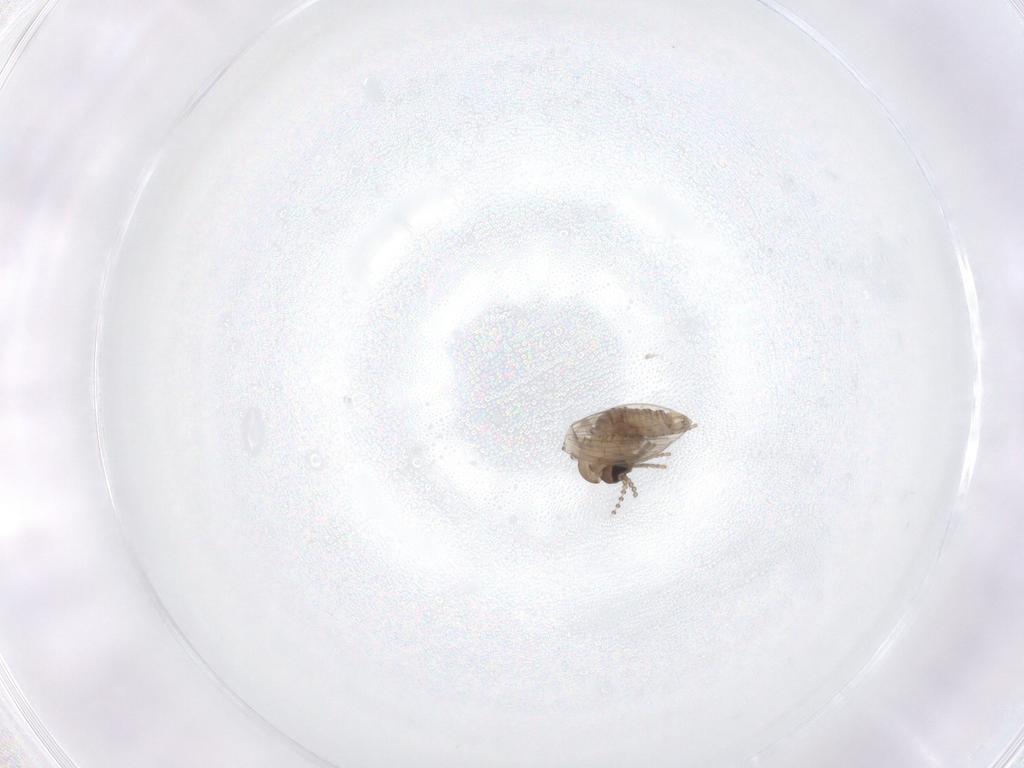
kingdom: Animalia
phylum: Arthropoda
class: Insecta
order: Diptera
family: Psychodidae
